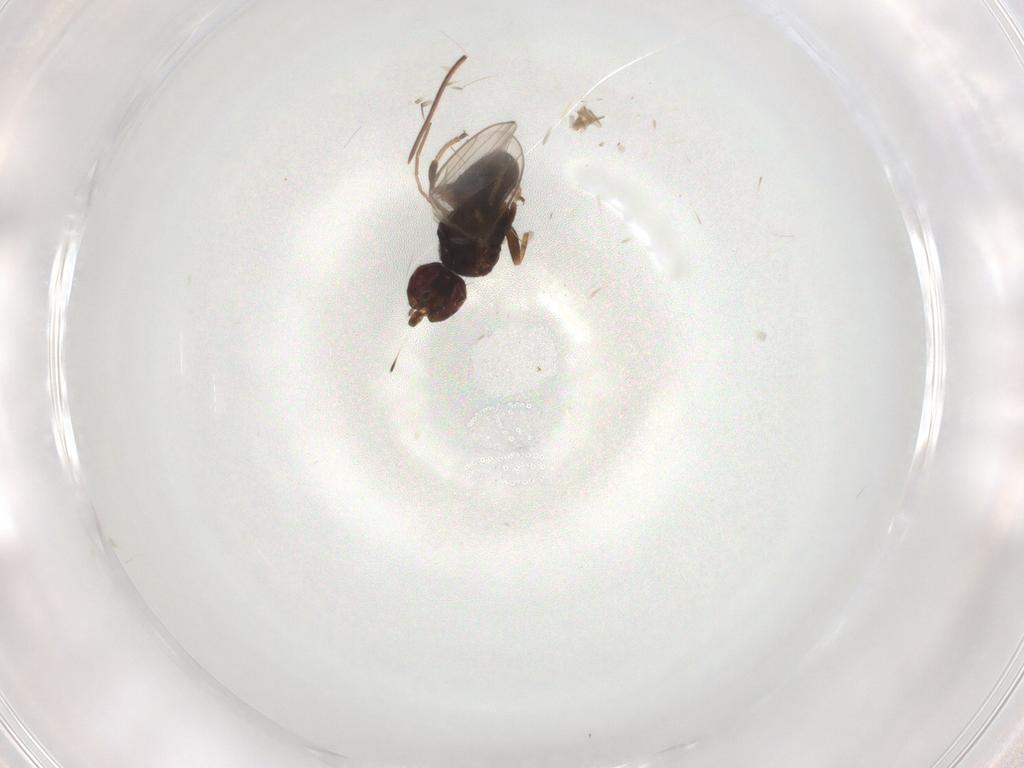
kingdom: Animalia
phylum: Arthropoda
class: Insecta
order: Diptera
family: Chloropidae
